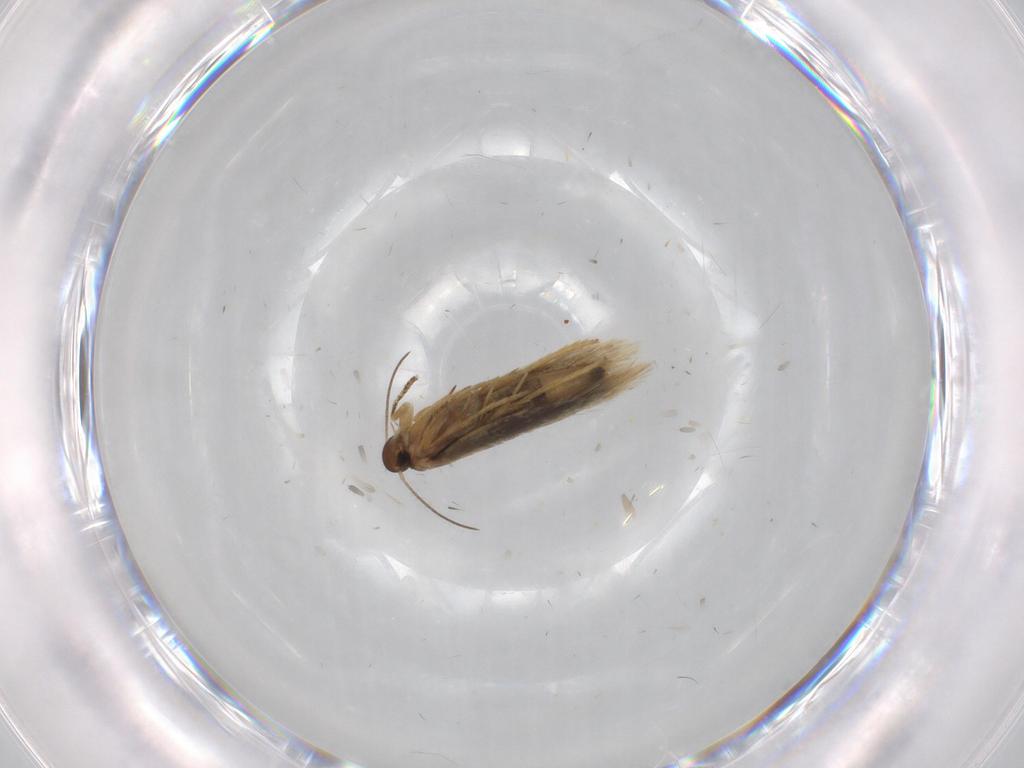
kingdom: Animalia
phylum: Arthropoda
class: Insecta
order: Lepidoptera
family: Heliozelidae
